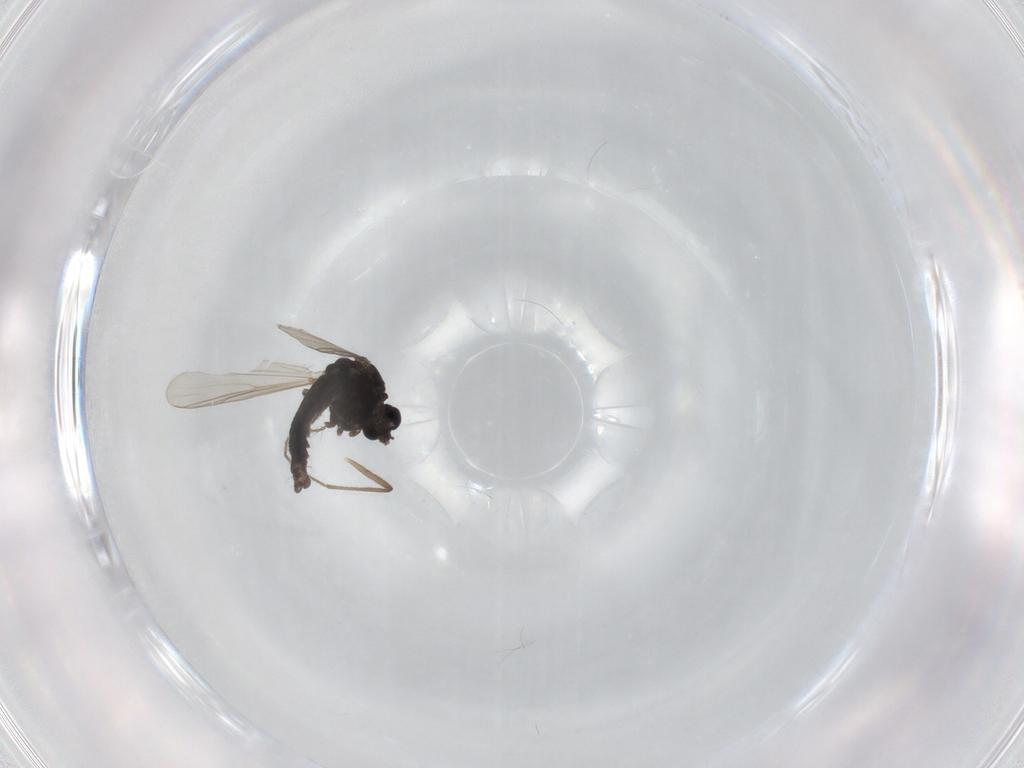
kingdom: Animalia
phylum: Arthropoda
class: Insecta
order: Diptera
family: Chironomidae
